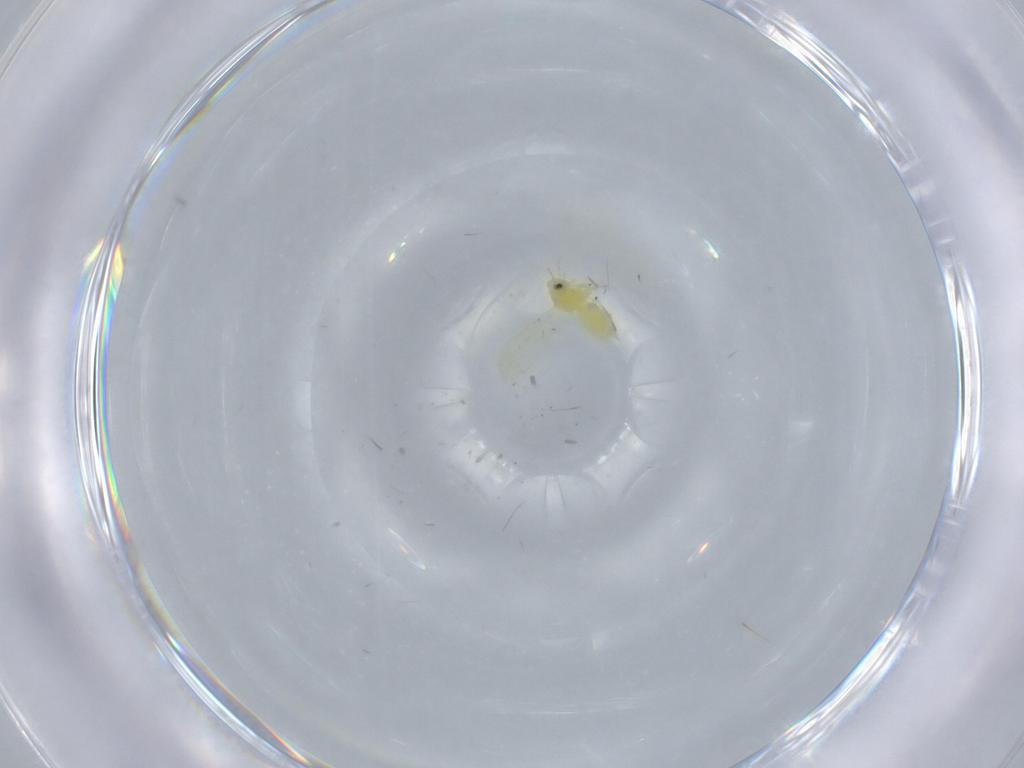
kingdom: Animalia
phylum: Arthropoda
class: Insecta
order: Hemiptera
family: Aleyrodidae
